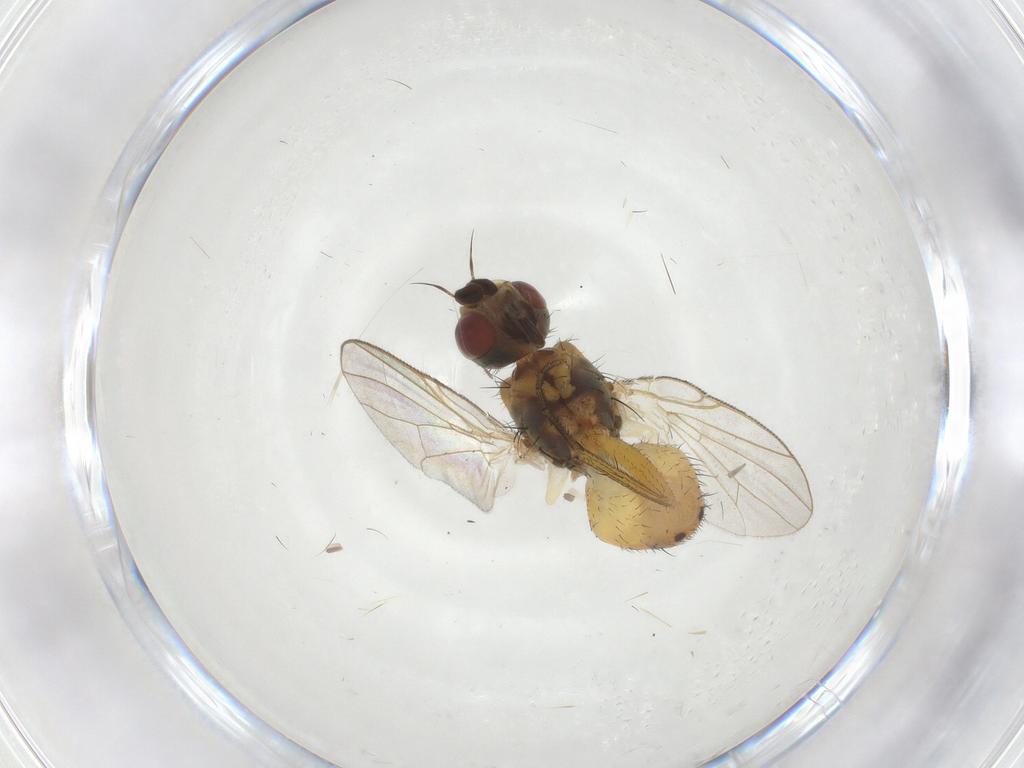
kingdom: Animalia
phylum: Arthropoda
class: Insecta
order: Diptera
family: Muscidae
